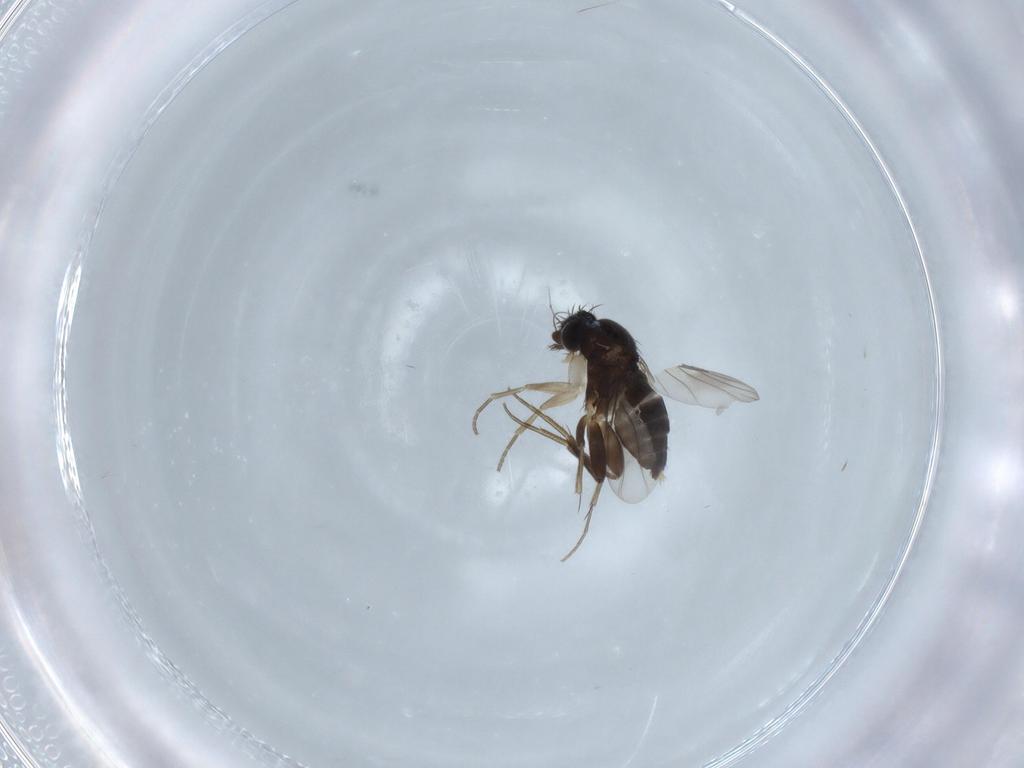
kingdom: Animalia
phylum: Arthropoda
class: Insecta
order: Diptera
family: Phoridae
